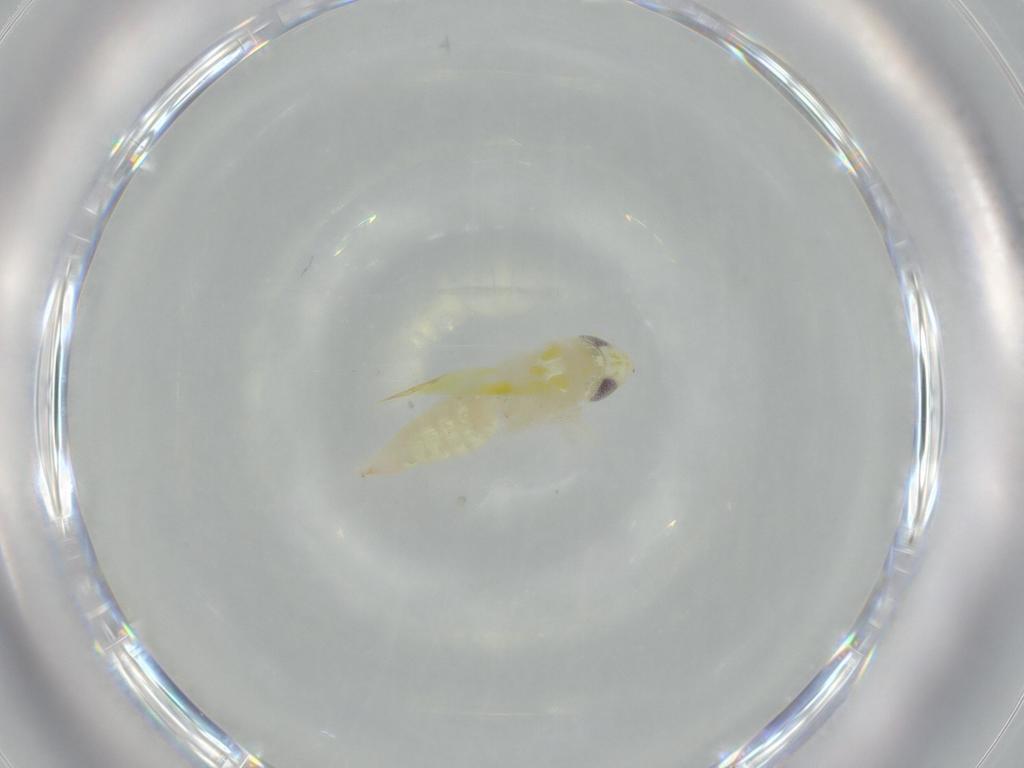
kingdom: Animalia
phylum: Arthropoda
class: Insecta
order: Hemiptera
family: Cicadellidae
